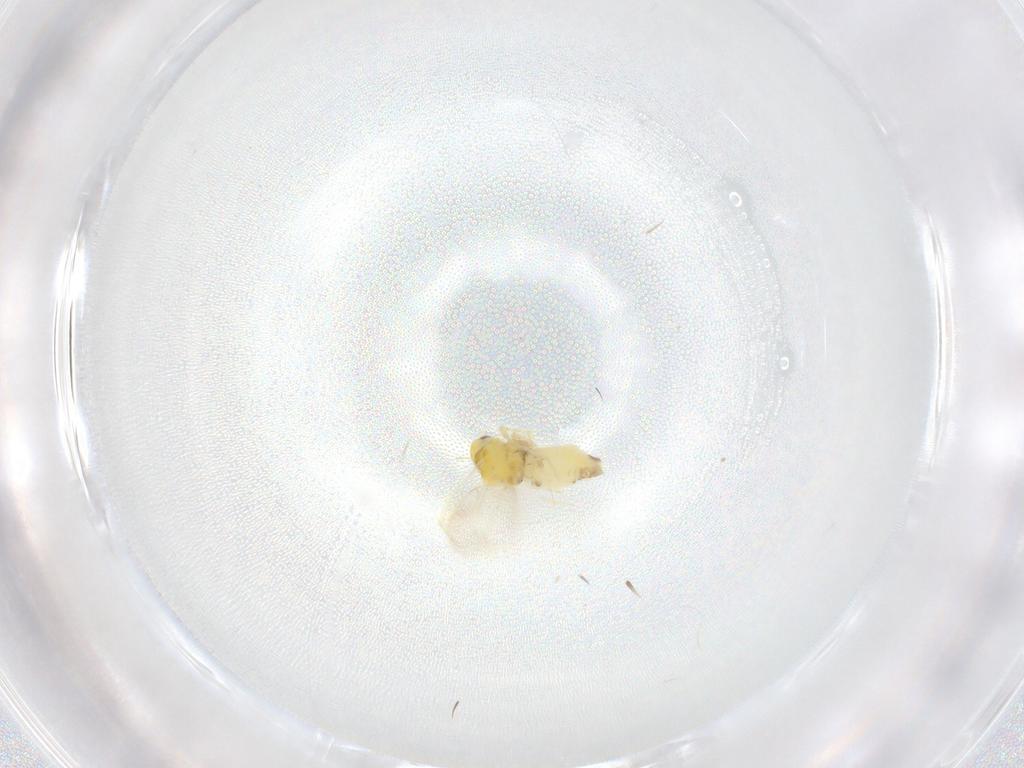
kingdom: Animalia
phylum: Arthropoda
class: Insecta
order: Hemiptera
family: Aleyrodidae
